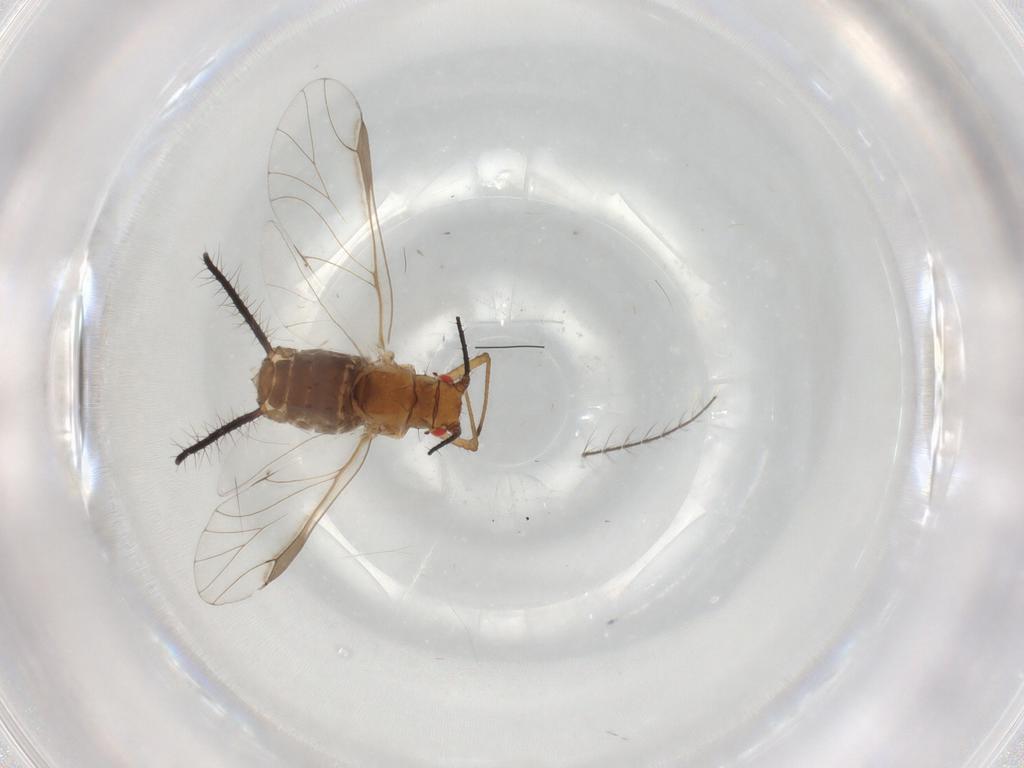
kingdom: Animalia
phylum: Arthropoda
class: Insecta
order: Hemiptera
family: Aphididae
